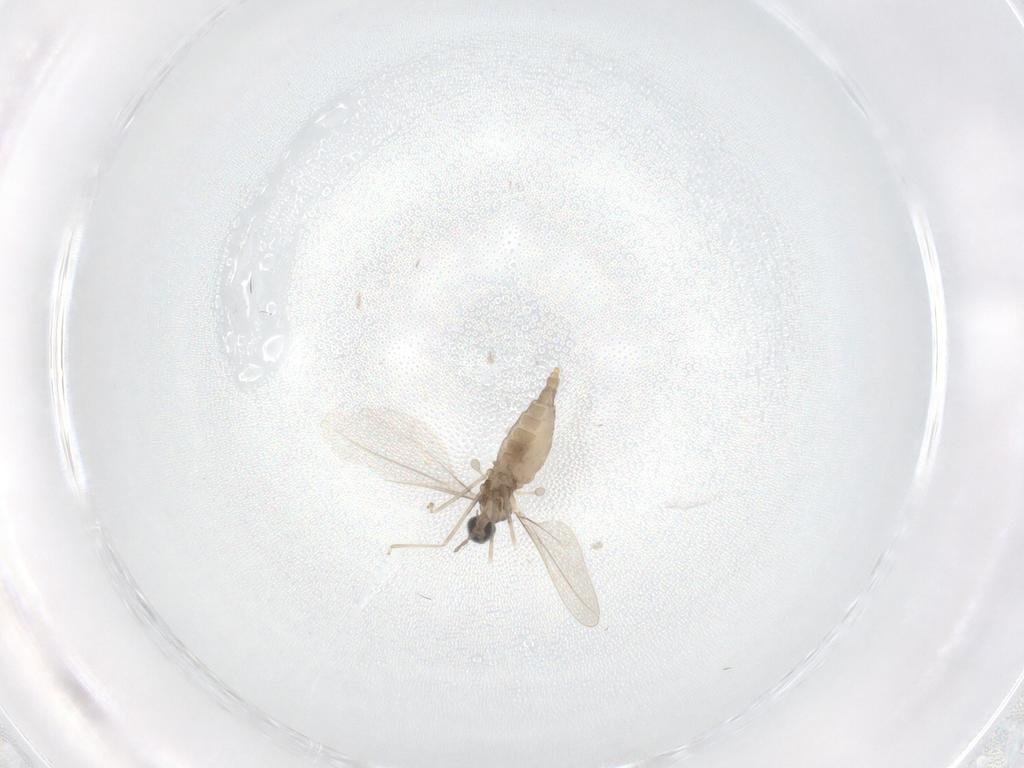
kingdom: Animalia
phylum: Arthropoda
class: Insecta
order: Diptera
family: Cecidomyiidae
